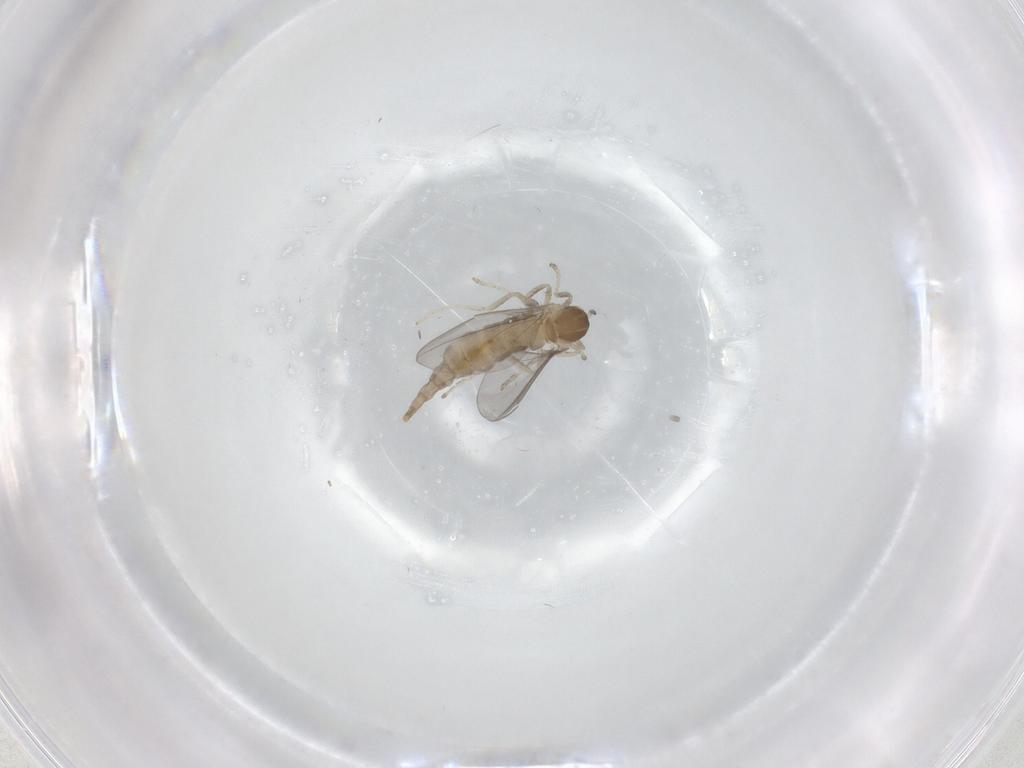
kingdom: Animalia
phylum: Arthropoda
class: Insecta
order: Diptera
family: Cecidomyiidae
